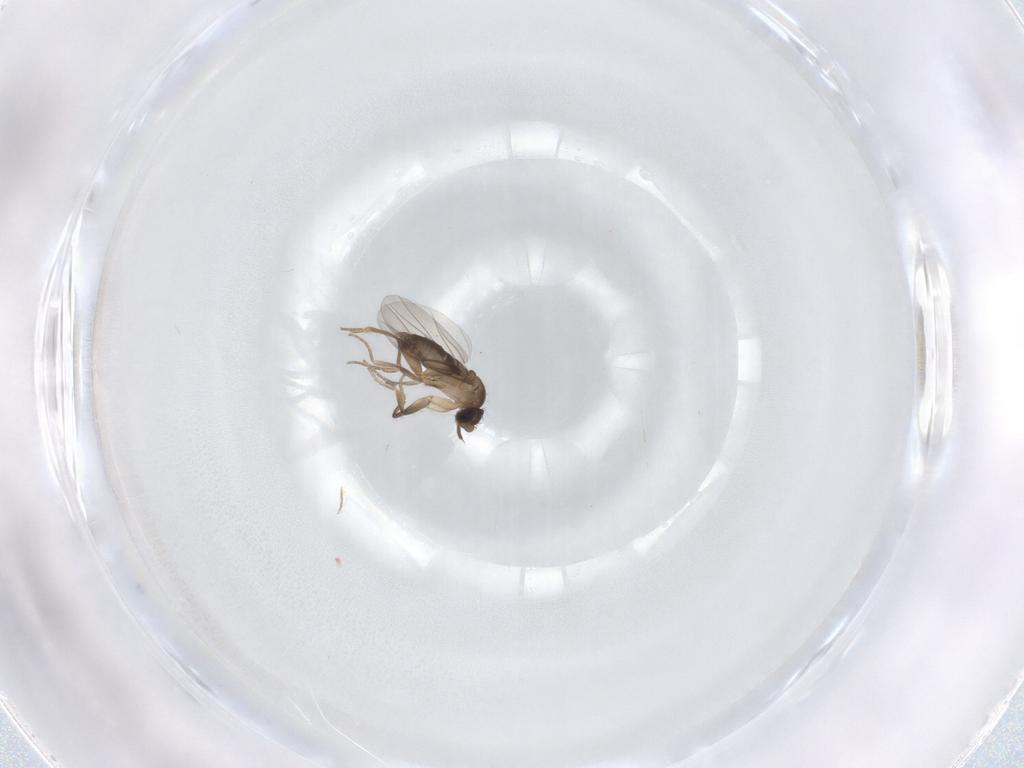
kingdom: Animalia
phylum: Arthropoda
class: Insecta
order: Diptera
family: Phoridae
